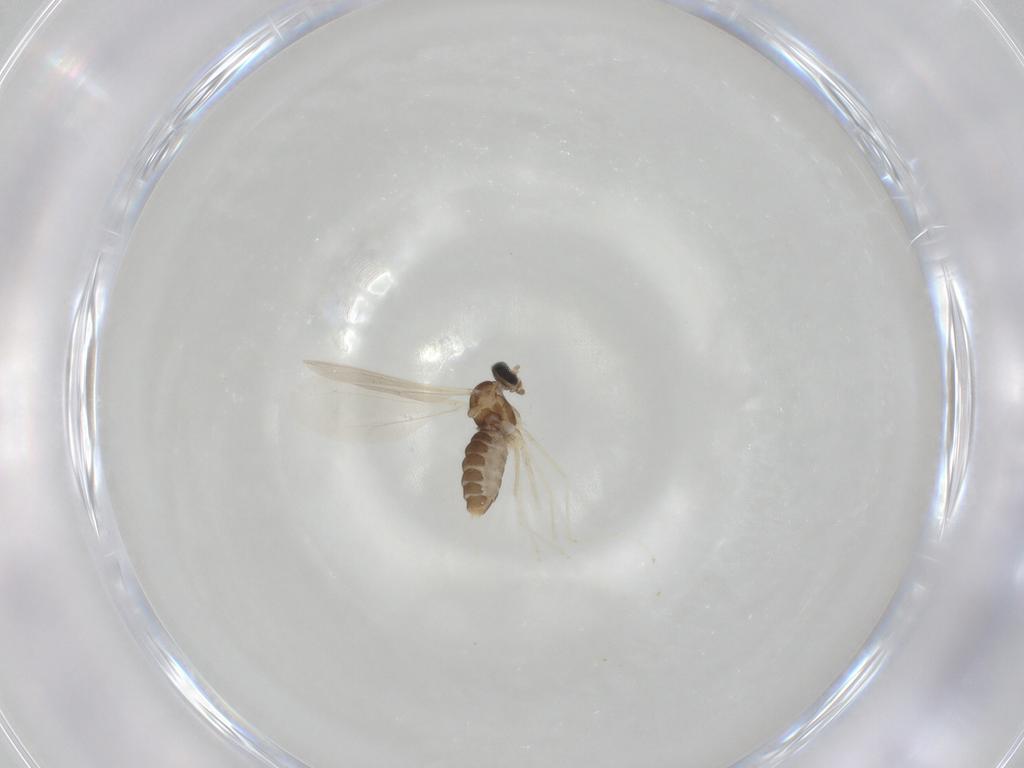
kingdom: Animalia
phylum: Arthropoda
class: Insecta
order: Diptera
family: Cecidomyiidae
